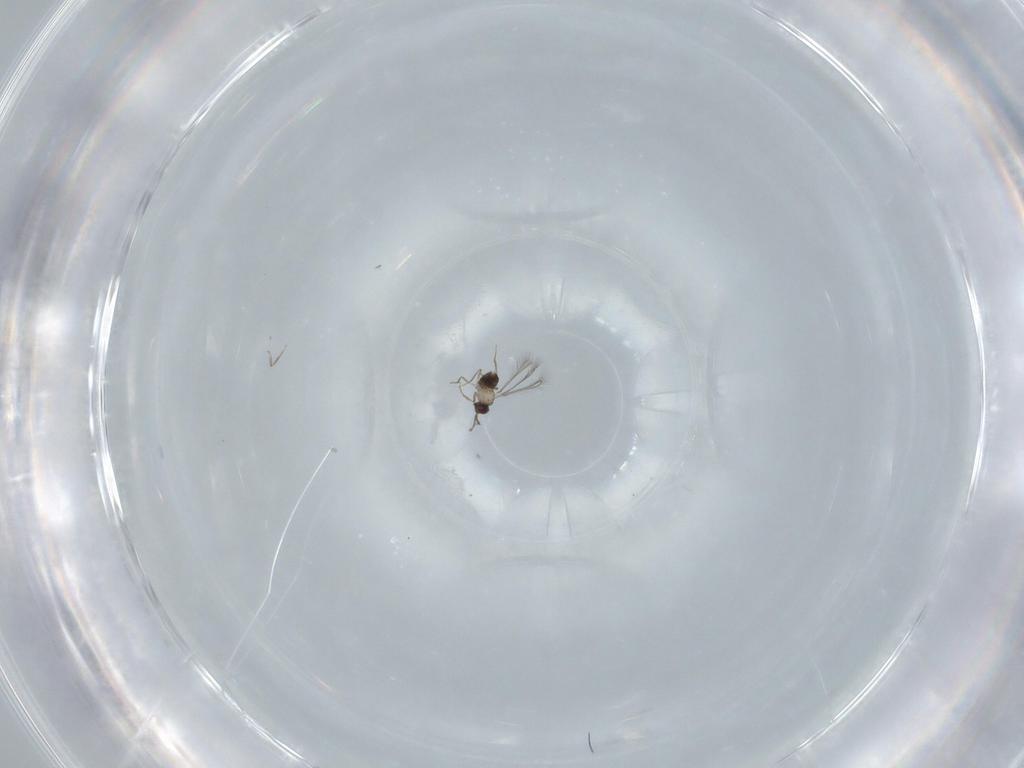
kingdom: Animalia
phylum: Arthropoda
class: Insecta
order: Hymenoptera
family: Mymaridae
